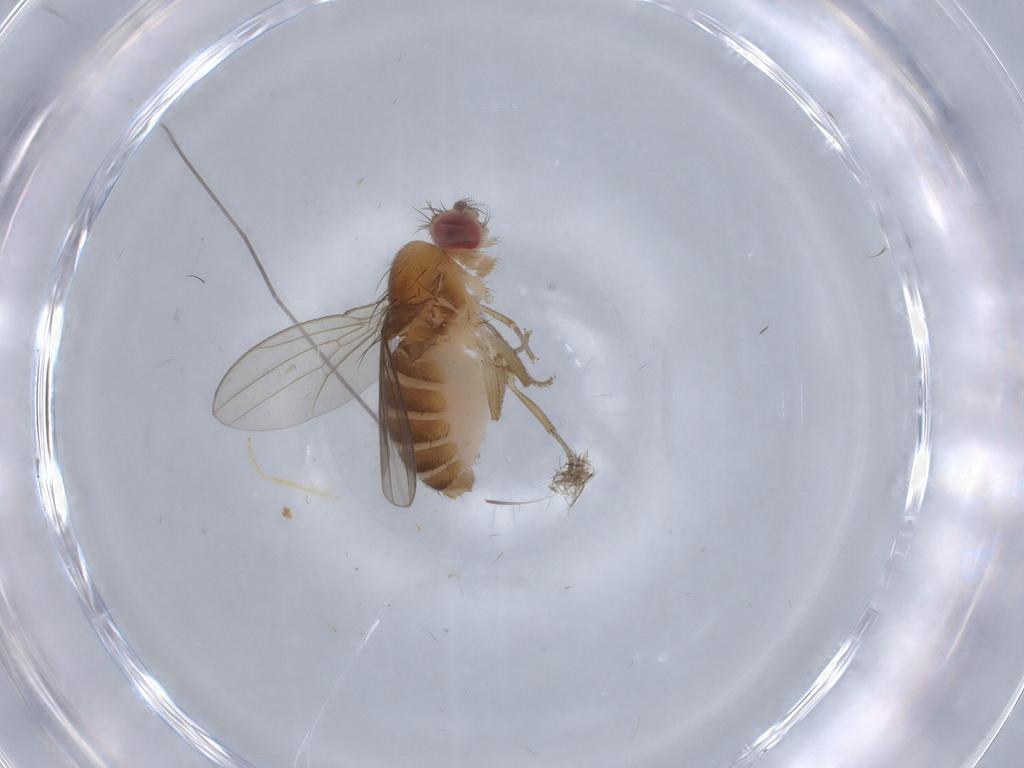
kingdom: Animalia
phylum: Arthropoda
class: Insecta
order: Diptera
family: Drosophilidae
